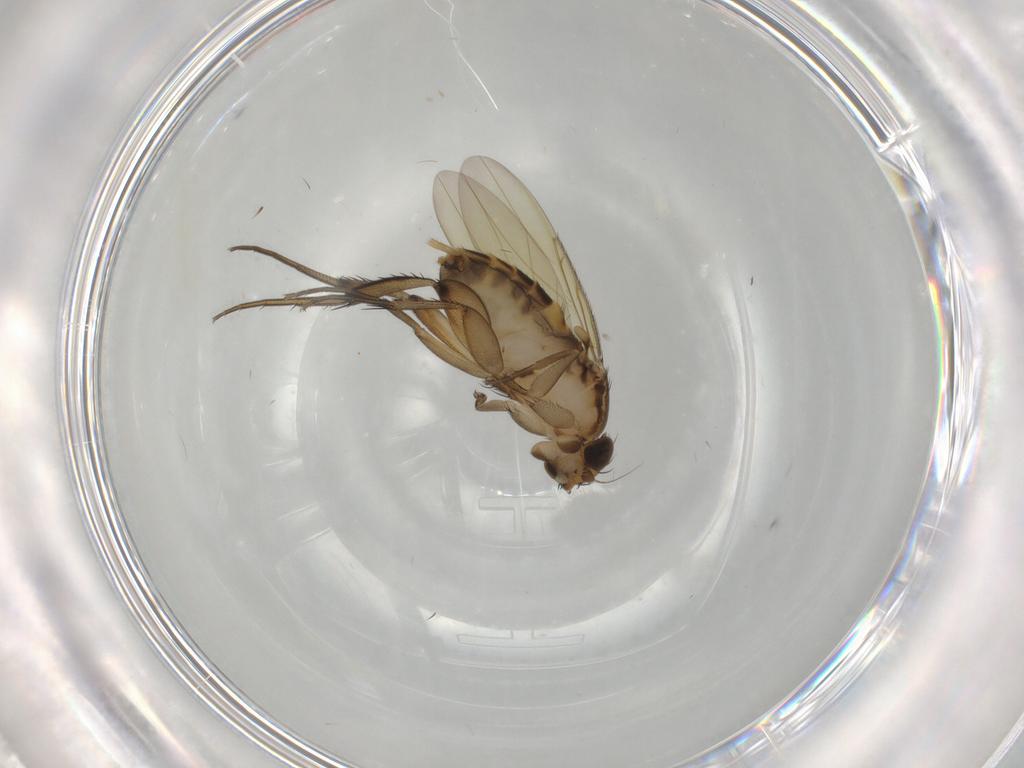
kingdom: Animalia
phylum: Arthropoda
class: Insecta
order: Diptera
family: Phoridae
